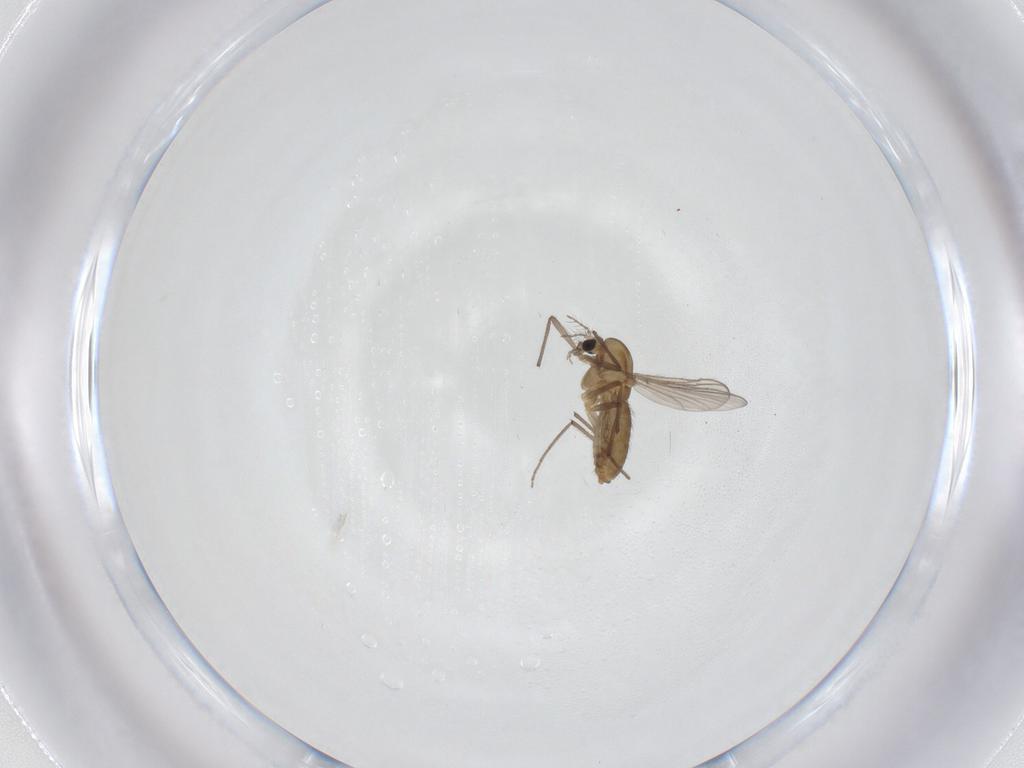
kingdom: Animalia
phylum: Arthropoda
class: Insecta
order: Diptera
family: Chironomidae
